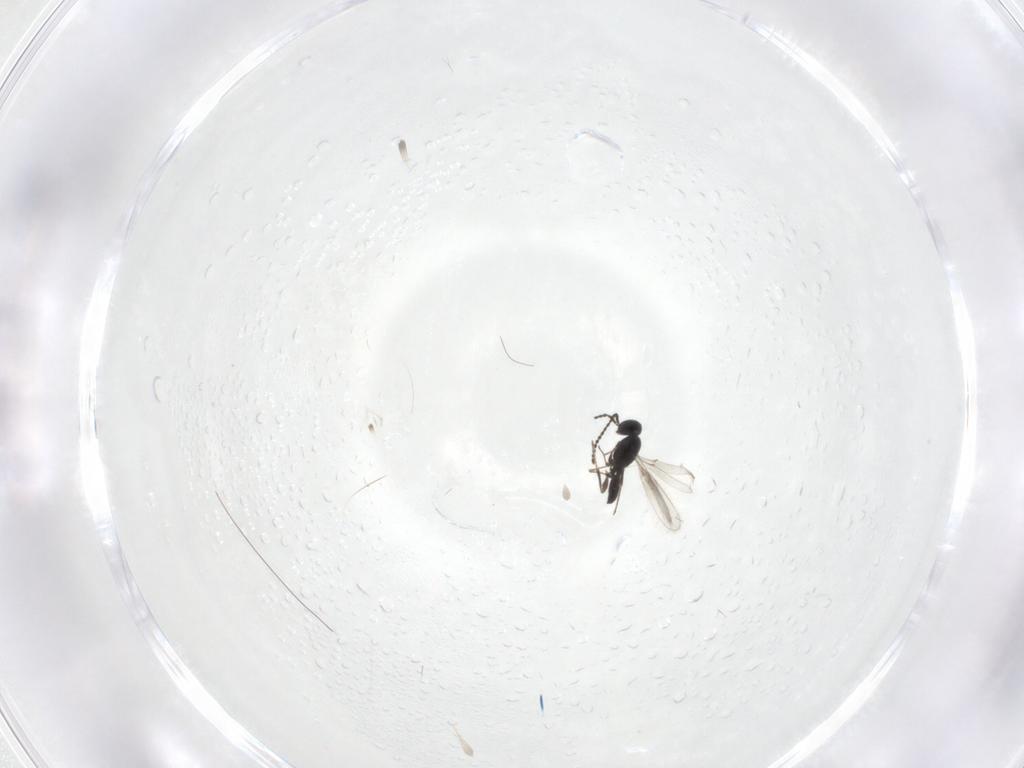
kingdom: Animalia
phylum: Arthropoda
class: Insecta
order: Hymenoptera
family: Scelionidae
